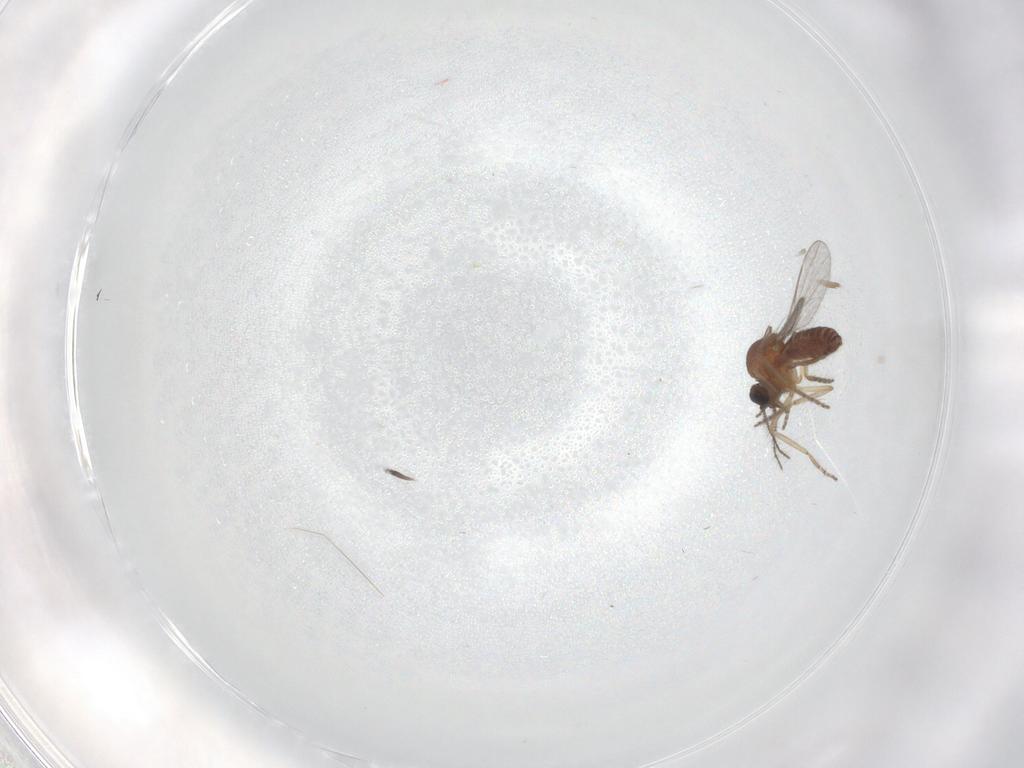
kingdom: Animalia
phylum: Arthropoda
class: Insecta
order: Diptera
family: Ceratopogonidae
